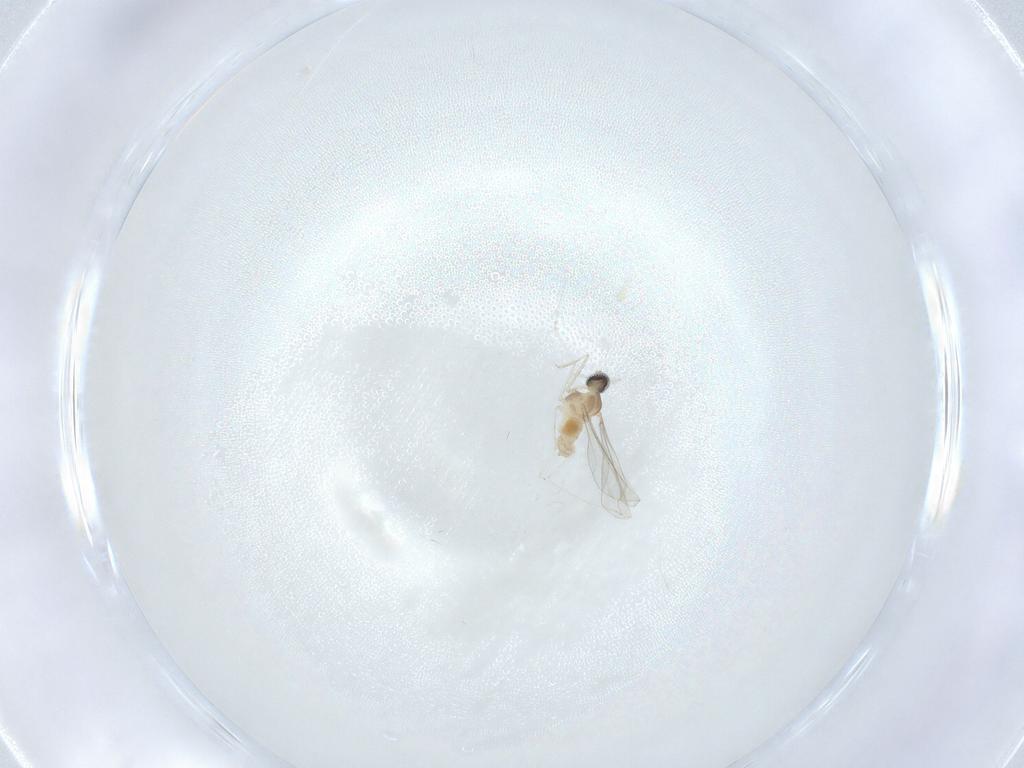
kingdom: Animalia
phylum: Arthropoda
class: Insecta
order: Diptera
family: Cecidomyiidae
